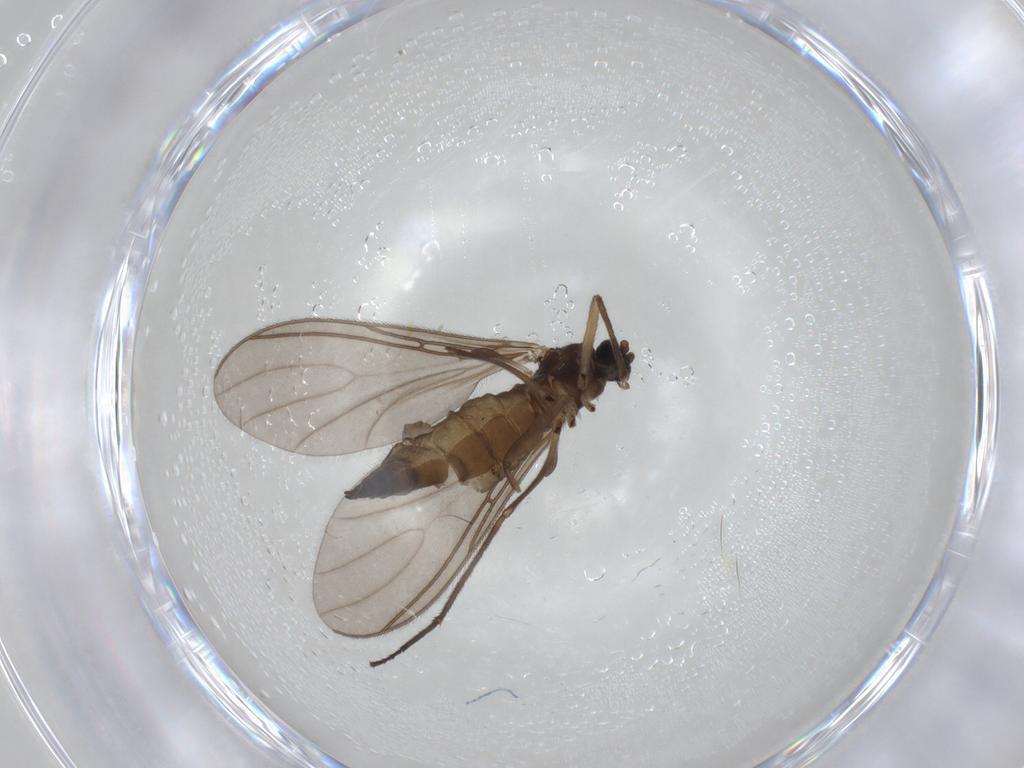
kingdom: Animalia
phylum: Arthropoda
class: Insecta
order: Diptera
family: Sciaridae
